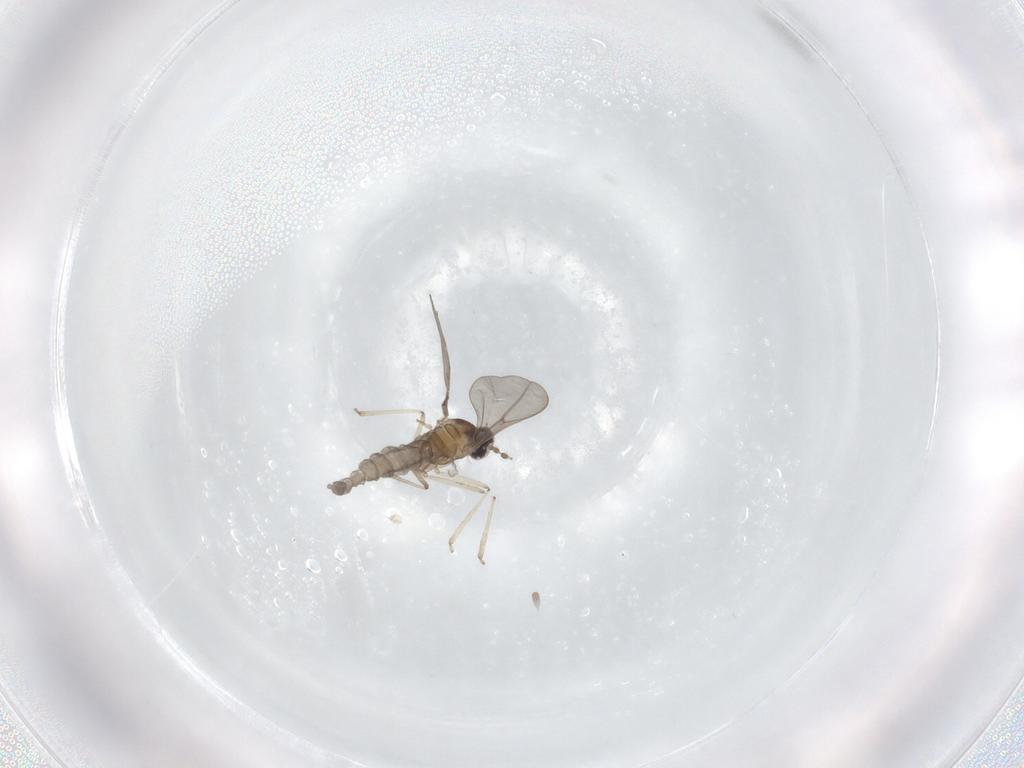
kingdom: Animalia
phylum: Arthropoda
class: Insecta
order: Diptera
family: Cecidomyiidae
